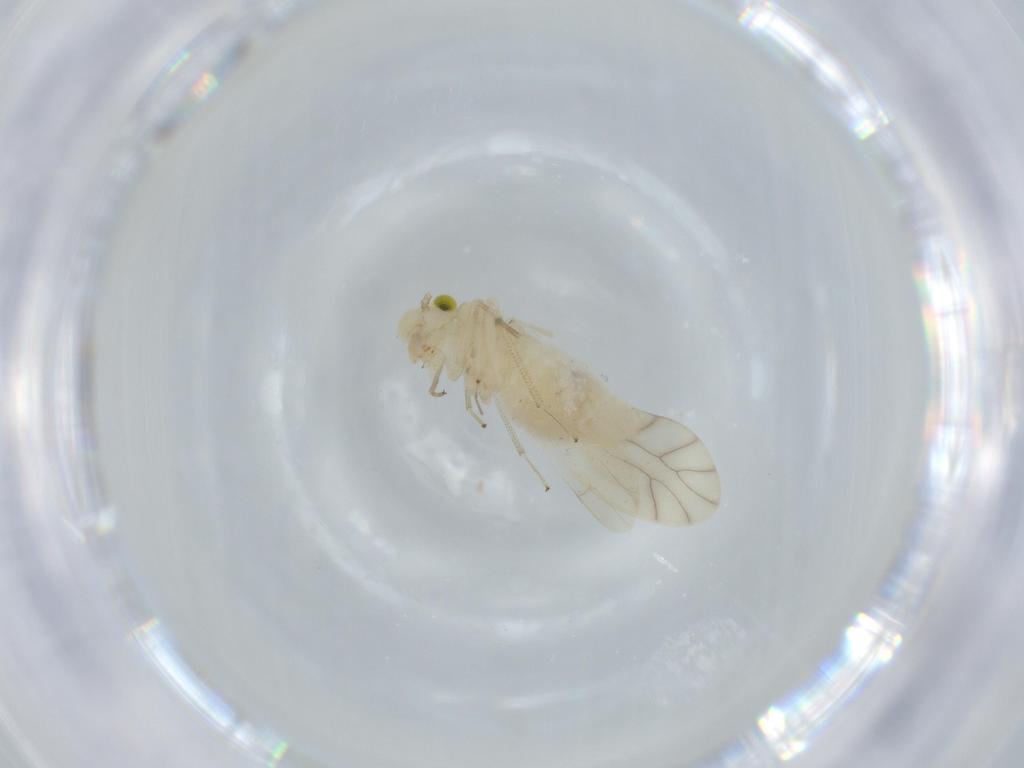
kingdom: Animalia
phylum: Arthropoda
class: Insecta
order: Psocodea
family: Caeciliusidae
